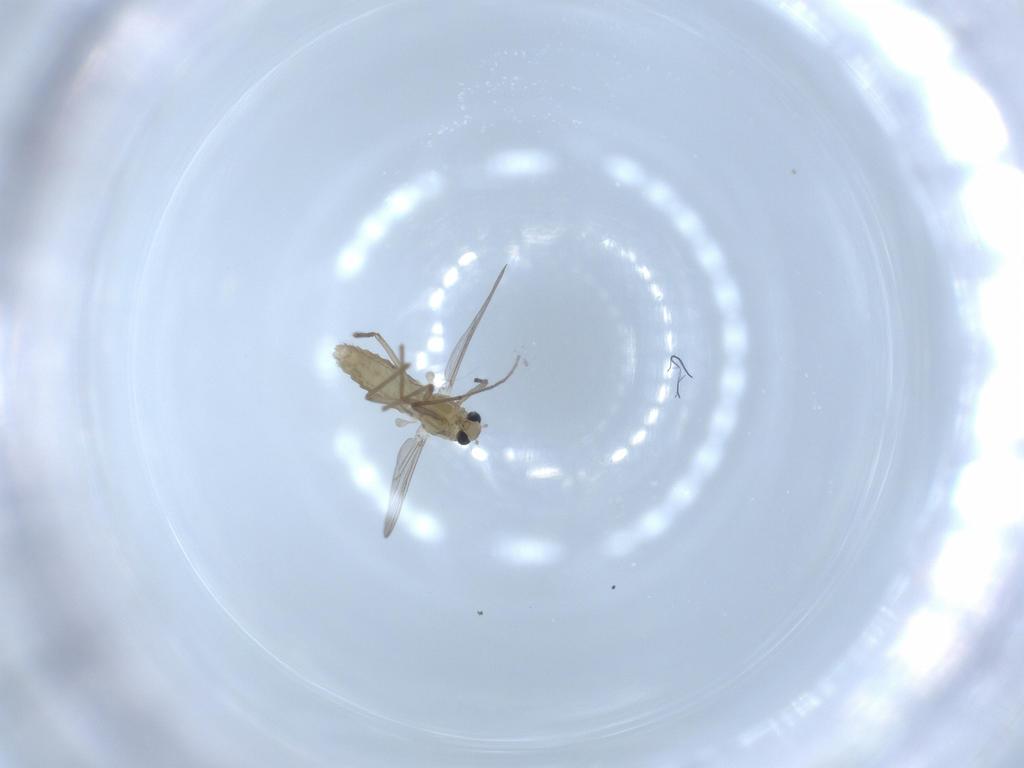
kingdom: Animalia
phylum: Arthropoda
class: Insecta
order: Diptera
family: Chironomidae
